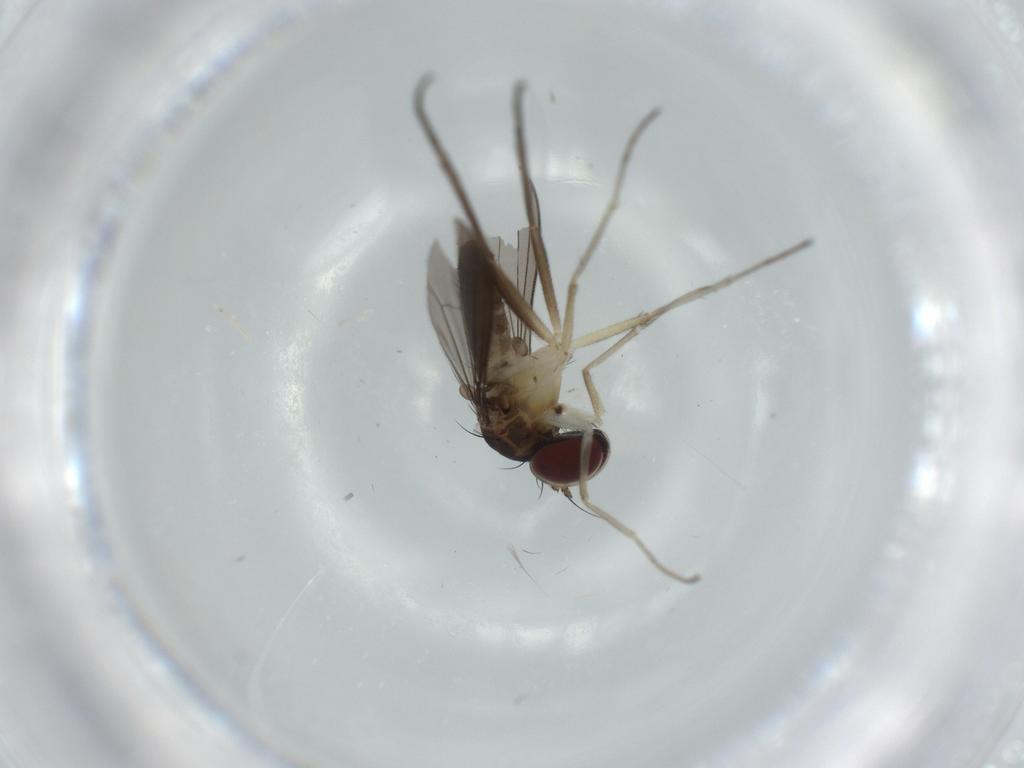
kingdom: Animalia
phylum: Arthropoda
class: Insecta
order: Diptera
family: Dolichopodidae
